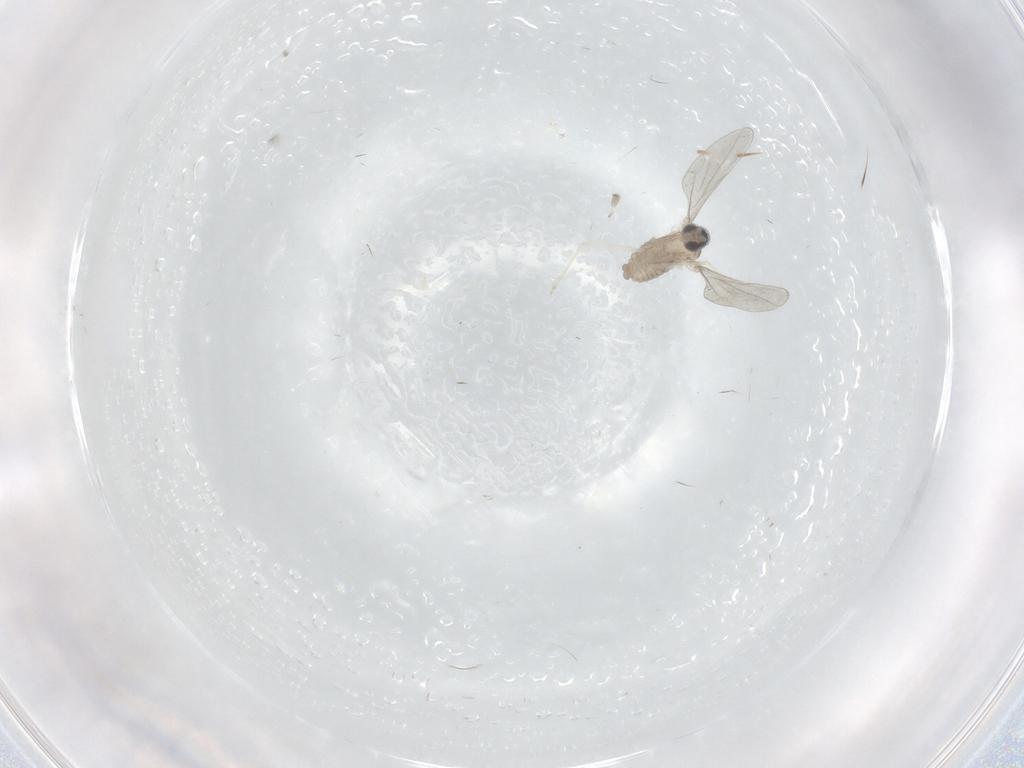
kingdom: Animalia
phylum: Arthropoda
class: Insecta
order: Diptera
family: Cecidomyiidae
